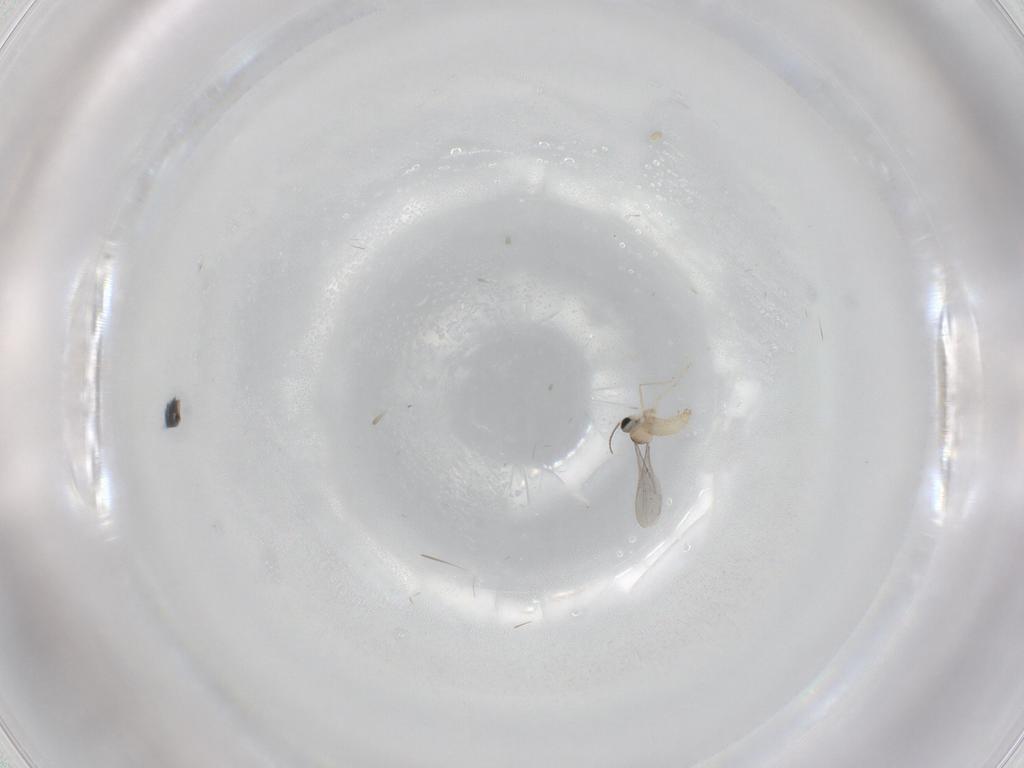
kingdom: Animalia
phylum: Arthropoda
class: Insecta
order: Diptera
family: Cecidomyiidae
